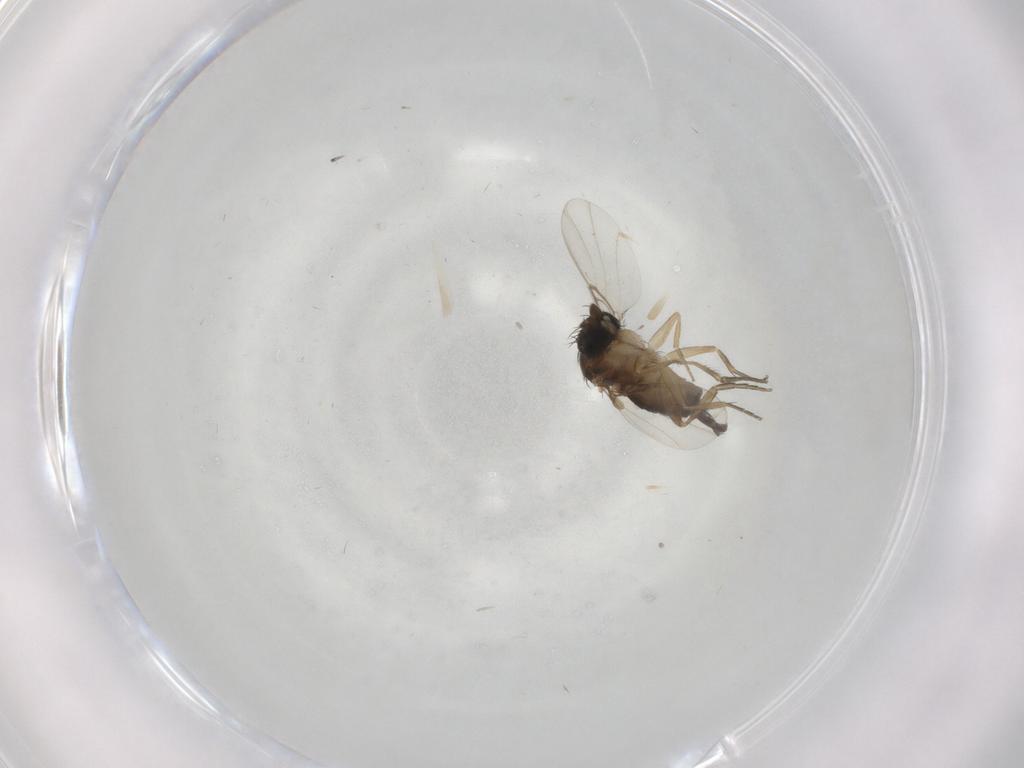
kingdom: Animalia
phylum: Arthropoda
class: Insecta
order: Diptera
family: Phoridae
